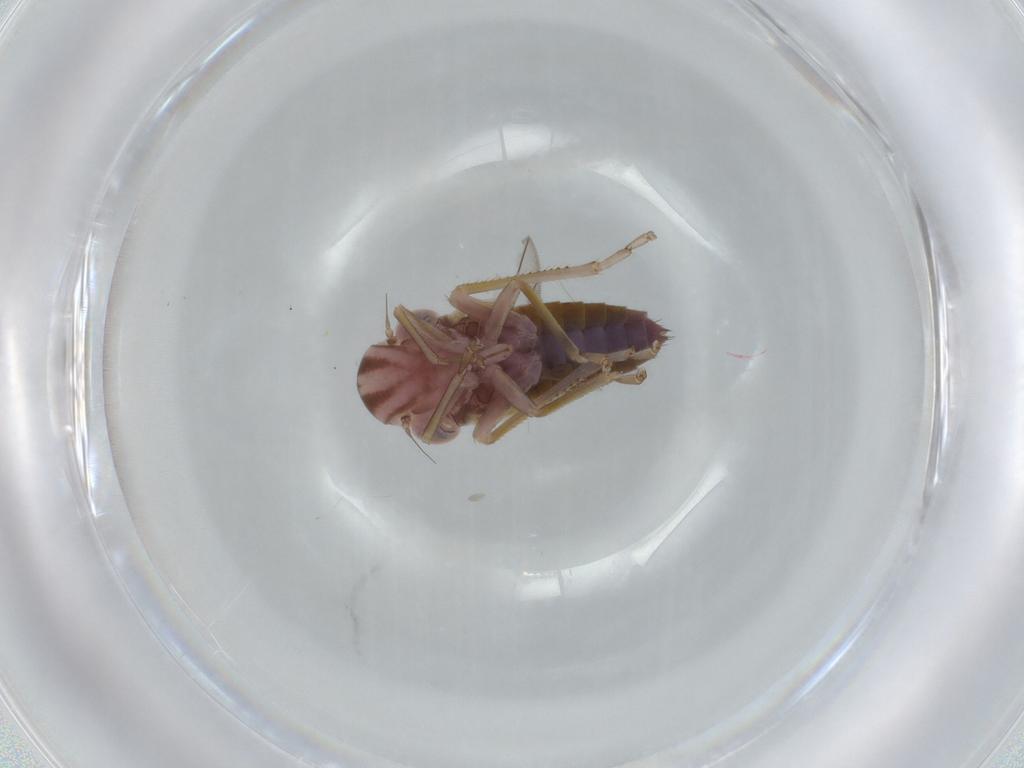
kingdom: Animalia
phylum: Arthropoda
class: Insecta
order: Hemiptera
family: Cicadellidae
